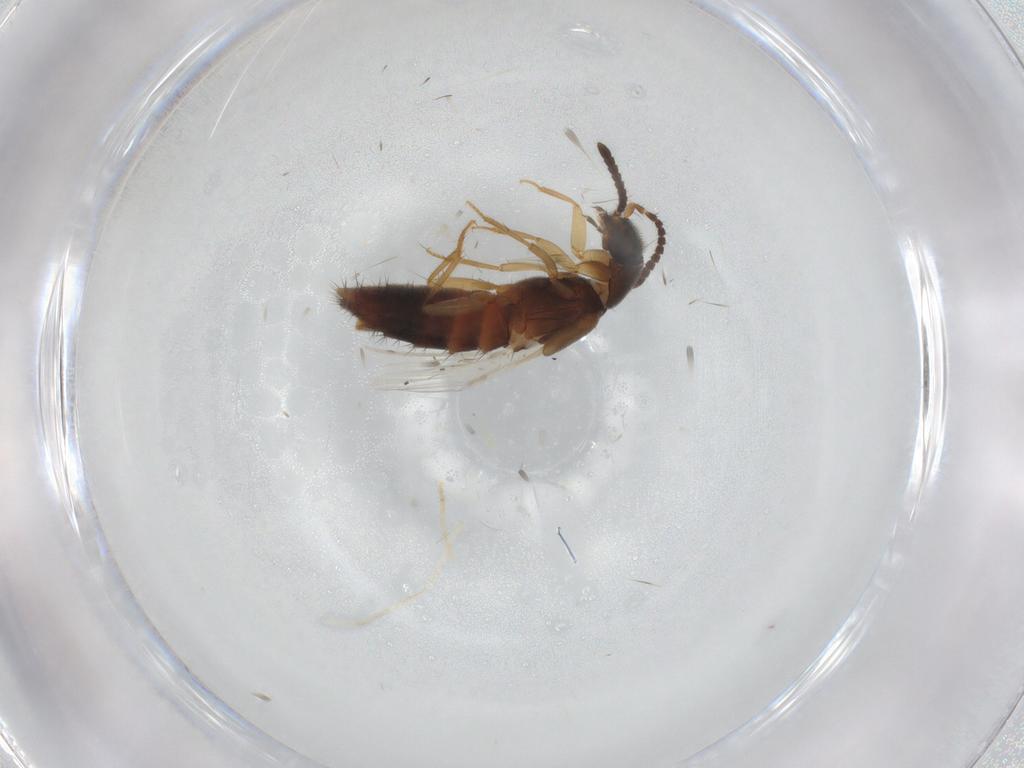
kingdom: Animalia
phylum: Arthropoda
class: Insecta
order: Coleoptera
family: Staphylinidae
